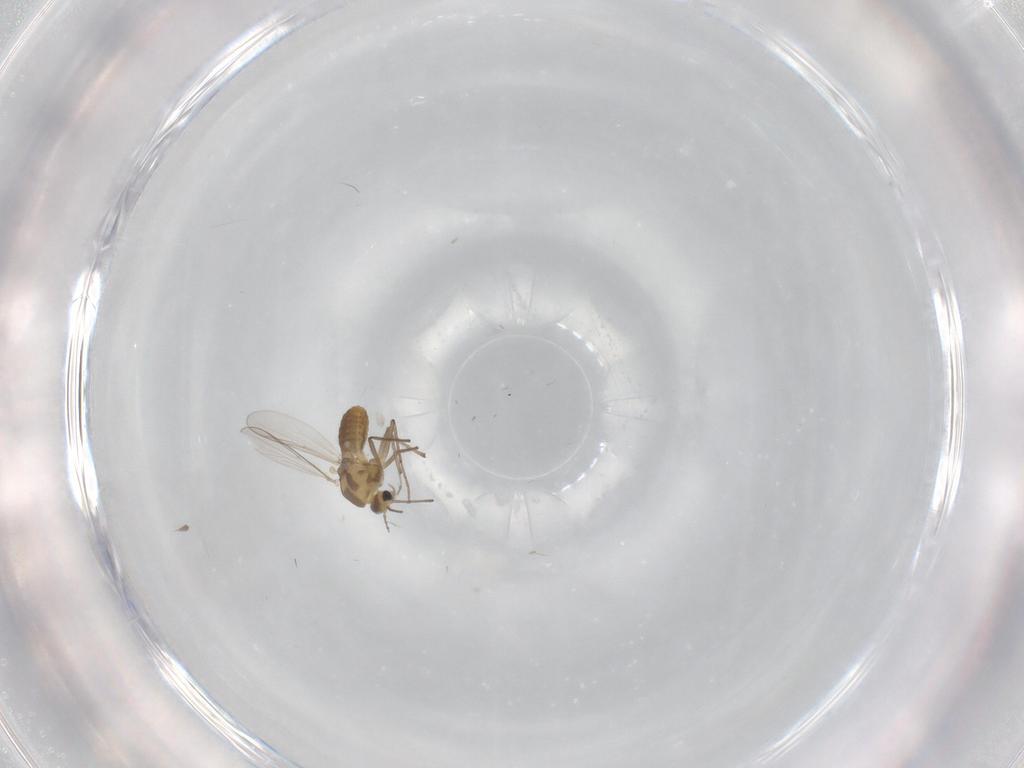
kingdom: Animalia
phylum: Arthropoda
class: Insecta
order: Diptera
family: Chironomidae
